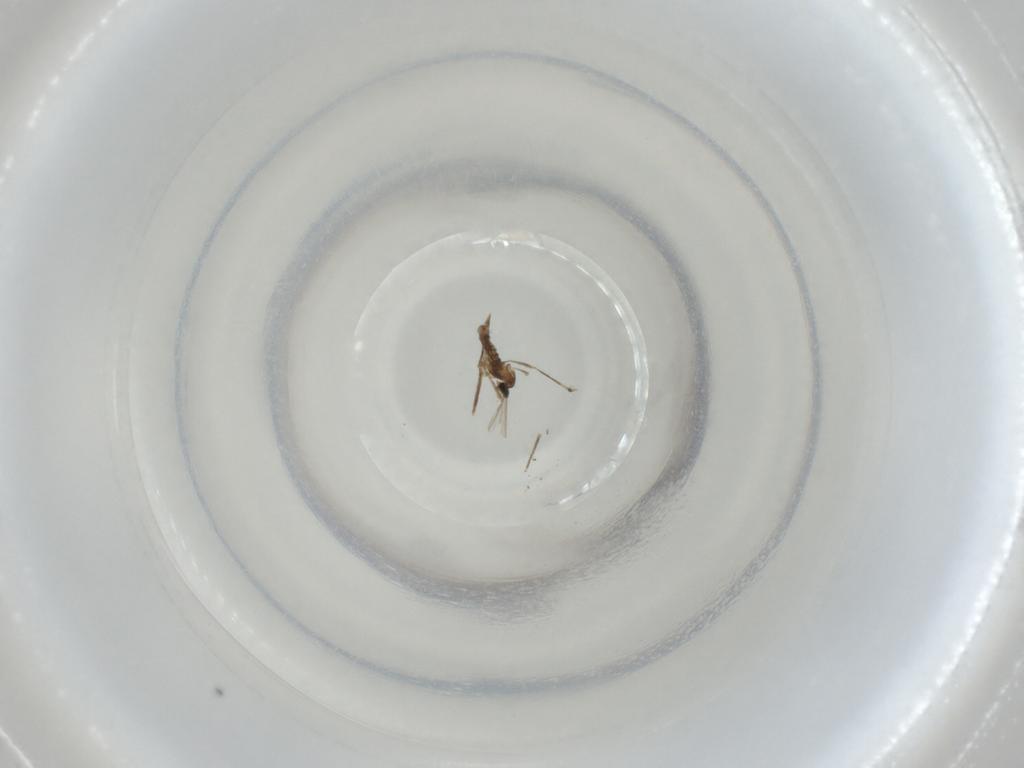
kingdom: Animalia
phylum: Arthropoda
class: Insecta
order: Diptera
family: Cecidomyiidae
